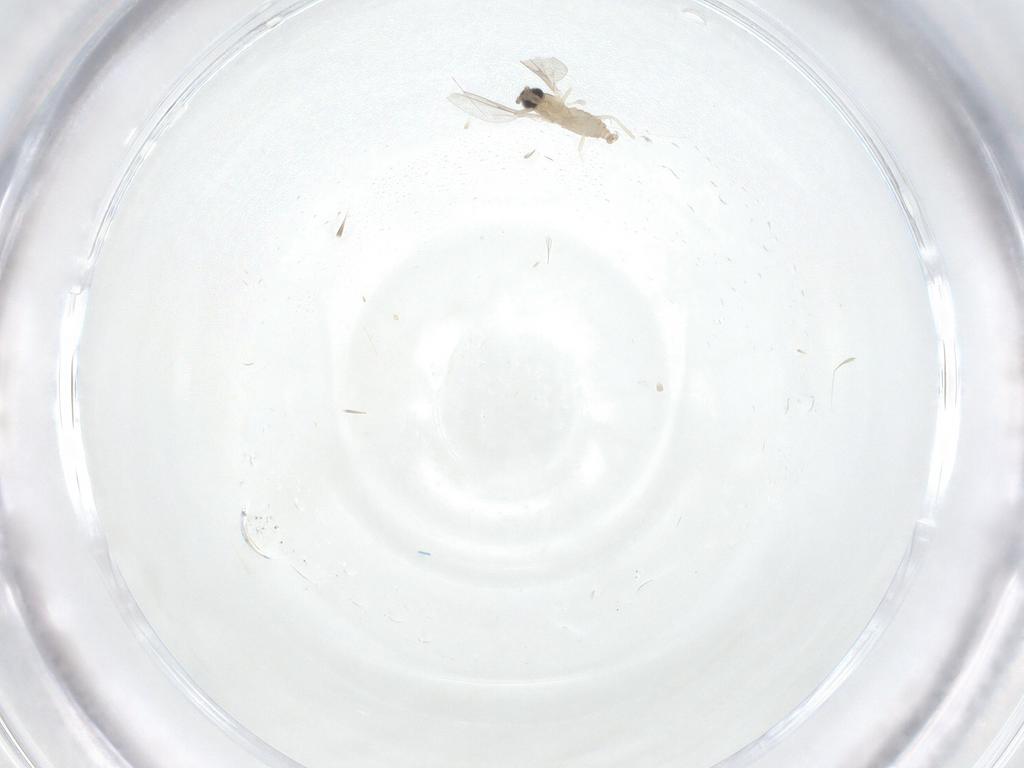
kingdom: Animalia
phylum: Arthropoda
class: Insecta
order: Diptera
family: Cecidomyiidae
